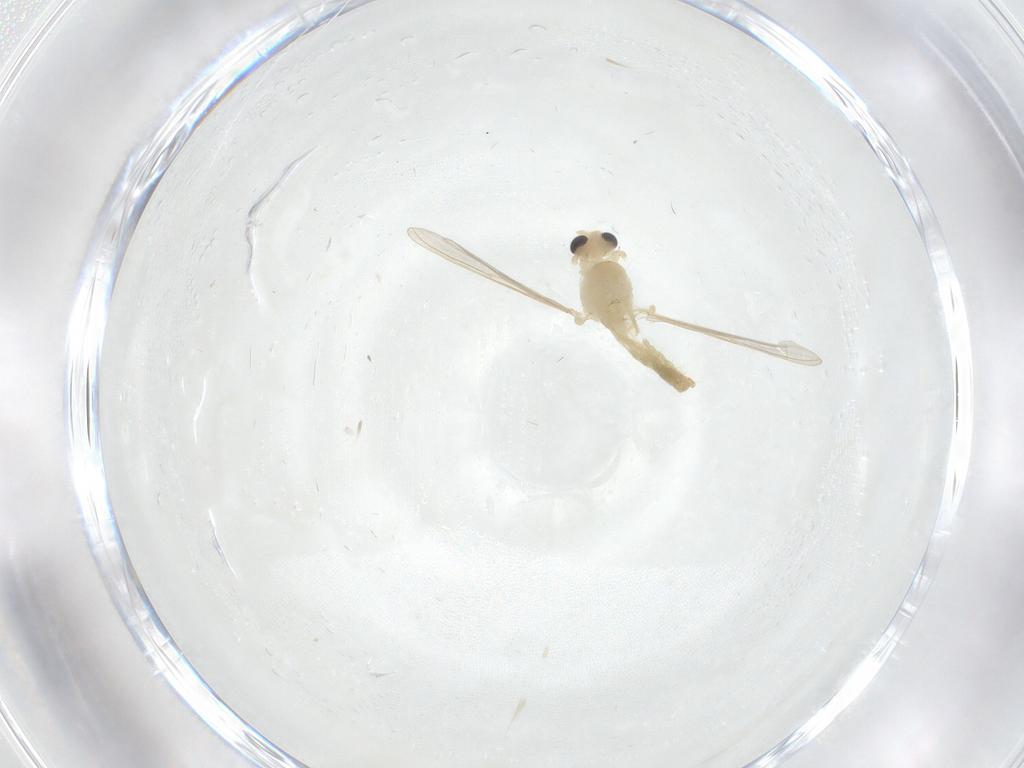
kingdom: Animalia
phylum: Arthropoda
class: Insecta
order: Diptera
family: Chironomidae
